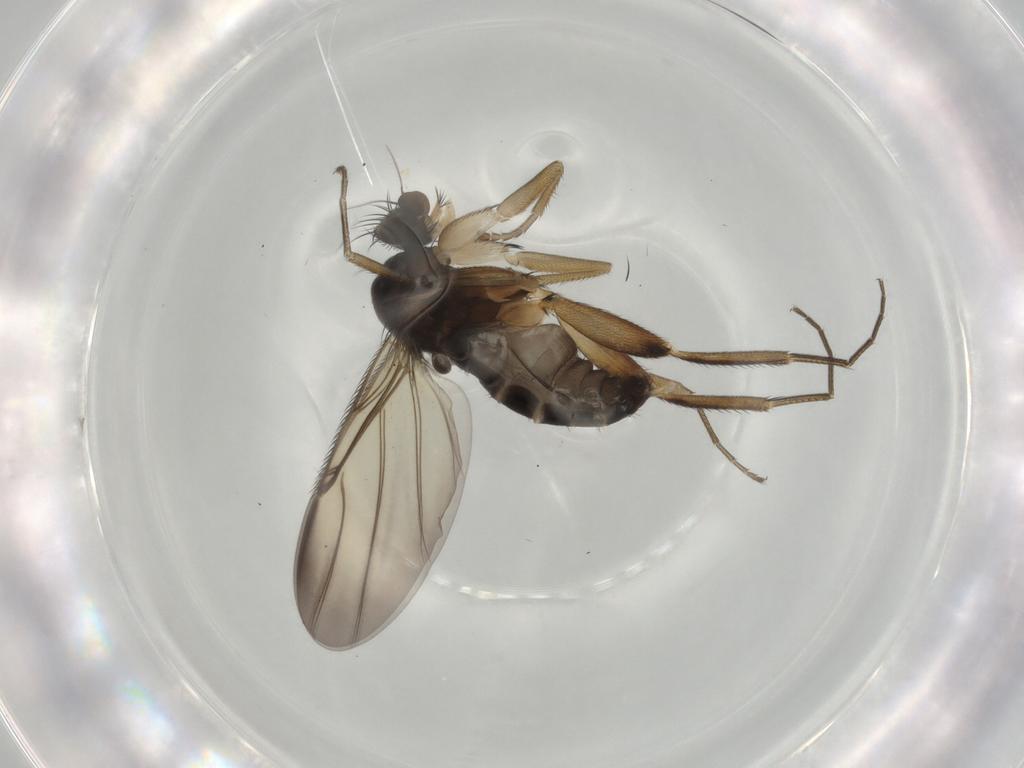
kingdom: Animalia
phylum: Arthropoda
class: Insecta
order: Diptera
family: Phoridae
